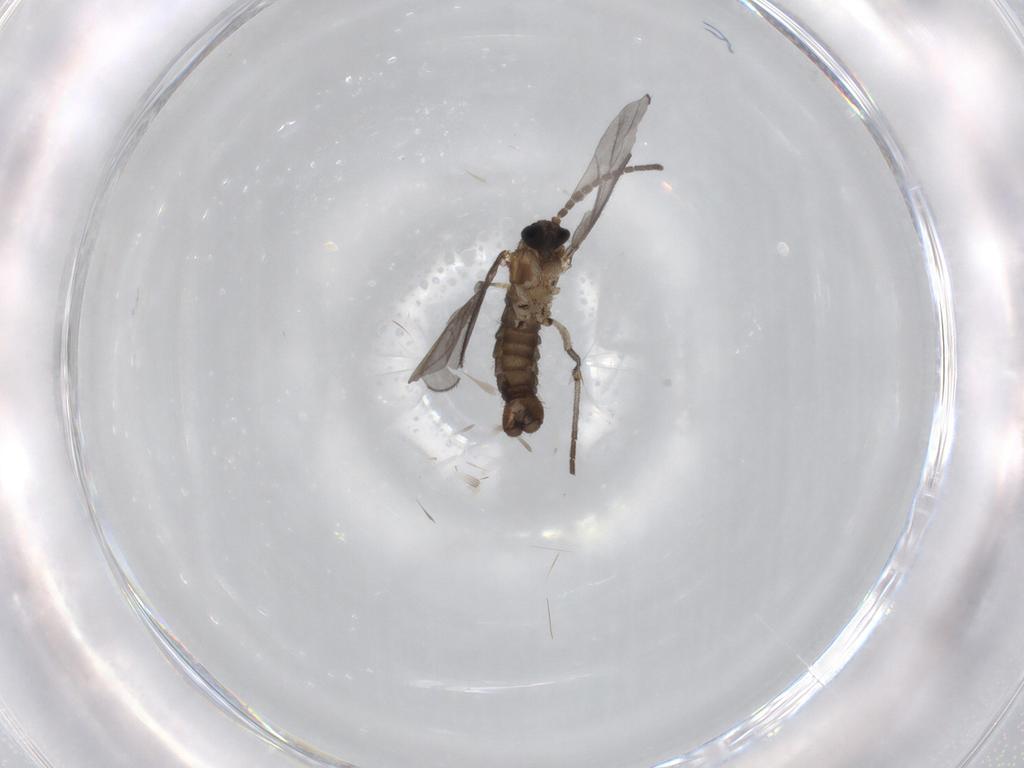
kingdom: Animalia
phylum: Arthropoda
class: Insecta
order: Diptera
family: Sciaridae
